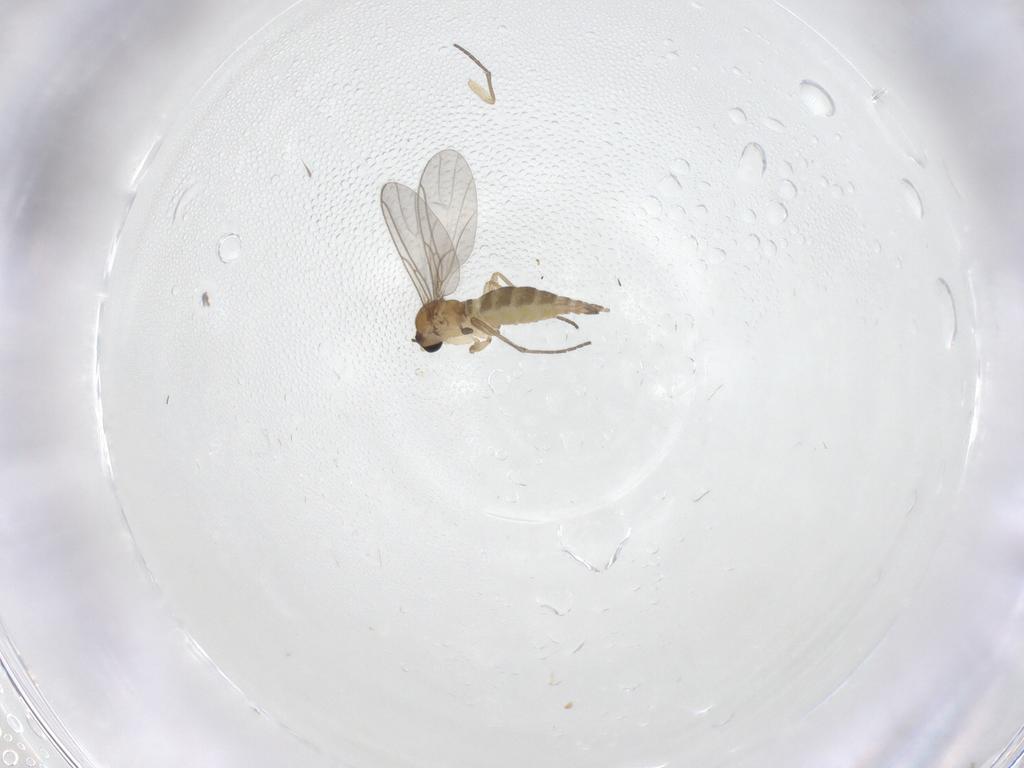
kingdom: Animalia
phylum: Arthropoda
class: Insecta
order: Diptera
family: Sciaridae
